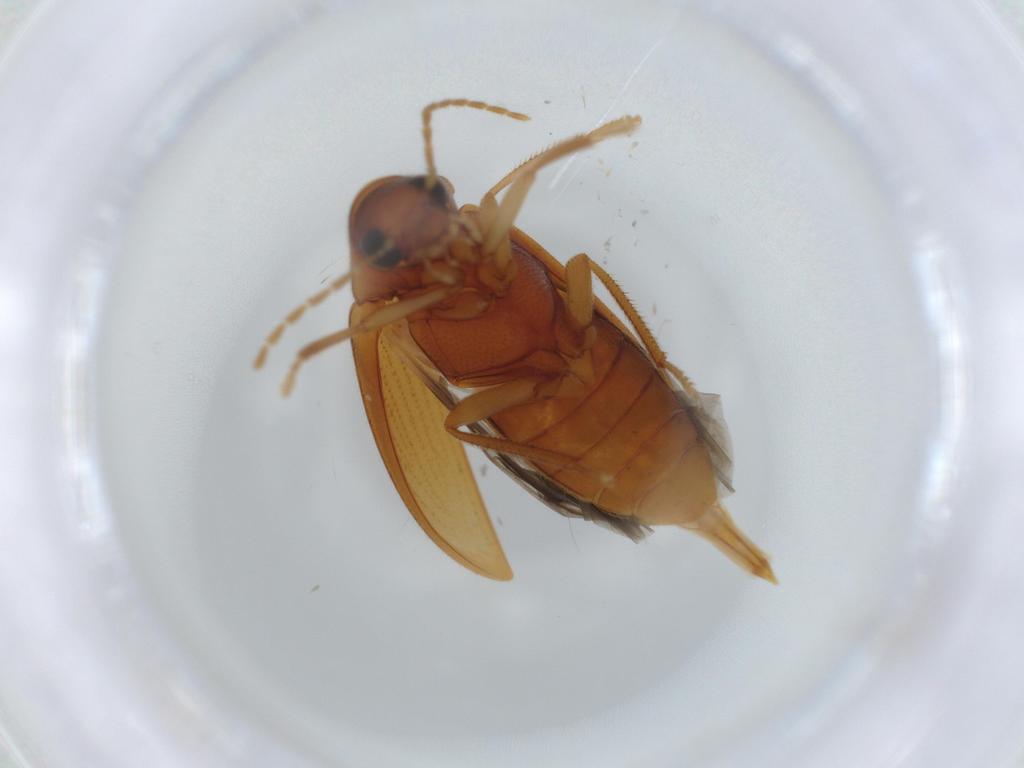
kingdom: Animalia
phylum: Arthropoda
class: Insecta
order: Coleoptera
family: Ptilodactylidae
